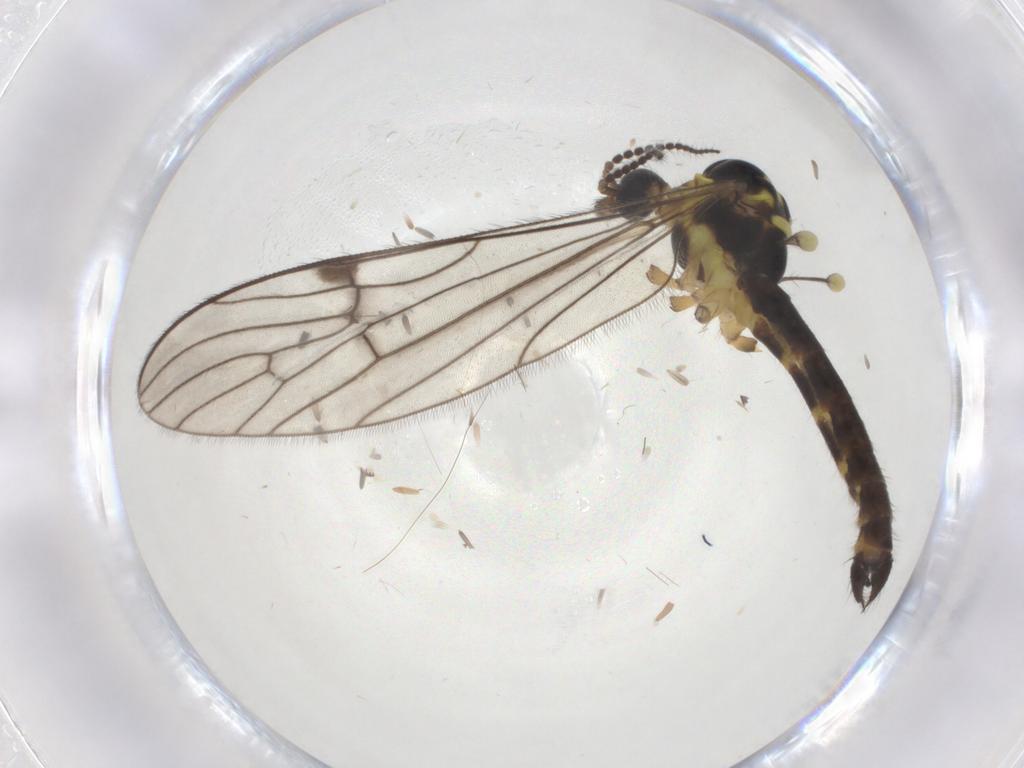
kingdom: Animalia
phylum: Arthropoda
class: Insecta
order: Diptera
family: Limoniidae
